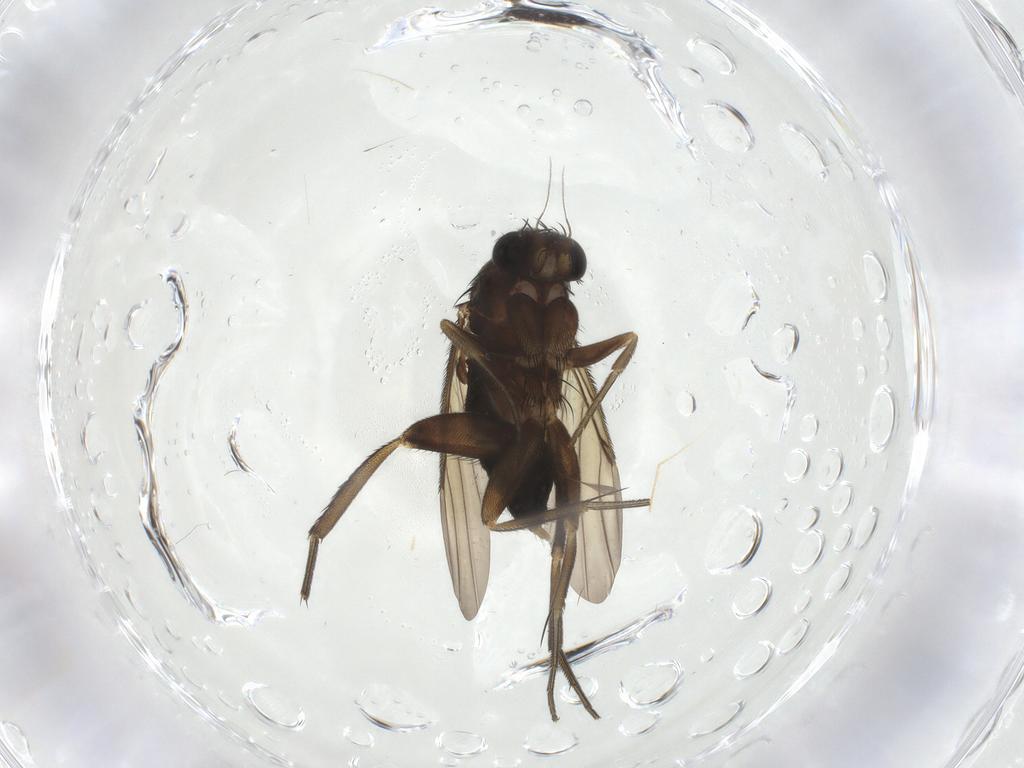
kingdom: Animalia
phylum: Arthropoda
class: Insecta
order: Diptera
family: Phoridae
